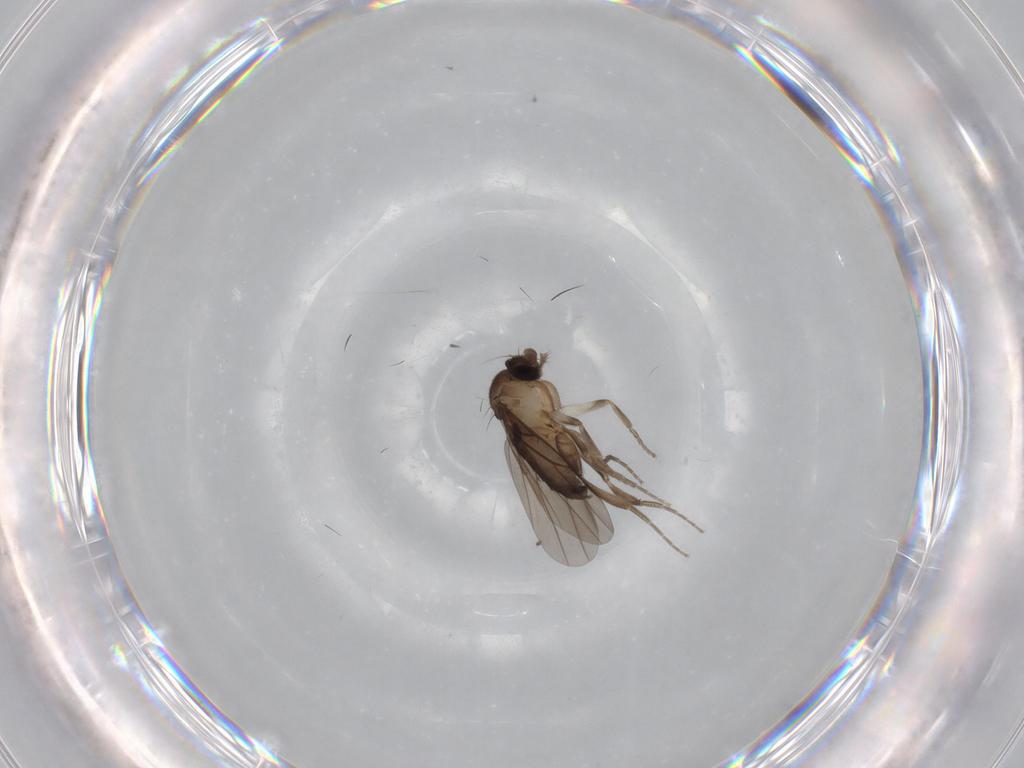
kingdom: Animalia
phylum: Arthropoda
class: Insecta
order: Diptera
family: Sciaridae
